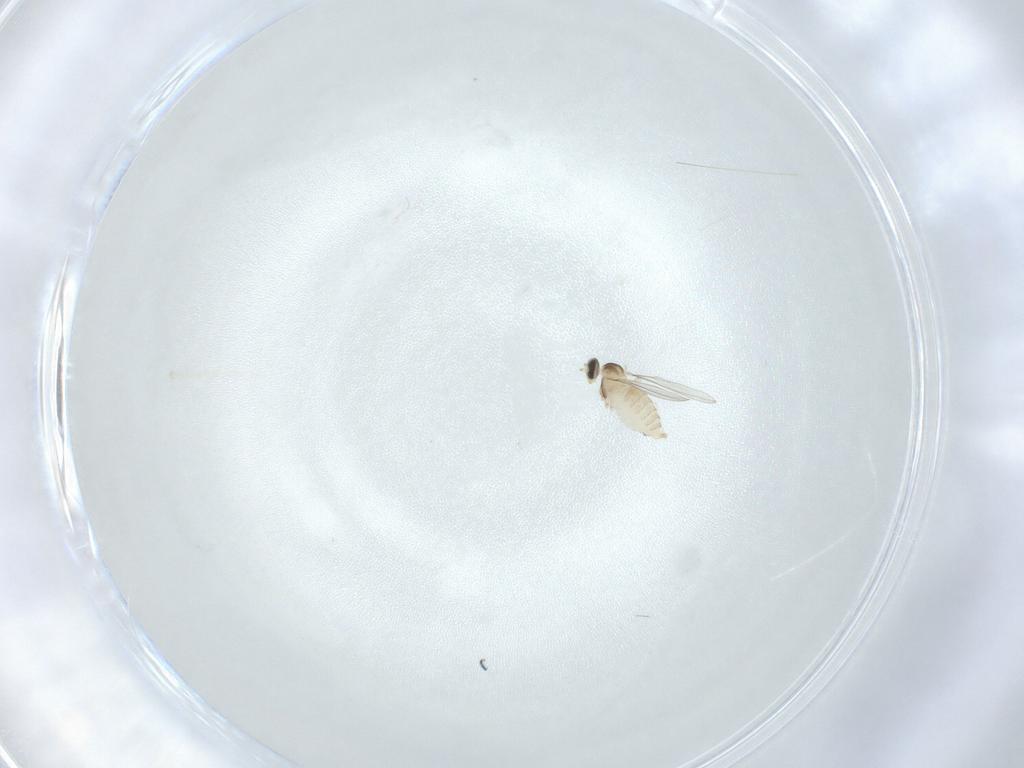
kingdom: Animalia
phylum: Arthropoda
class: Insecta
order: Diptera
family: Cecidomyiidae
